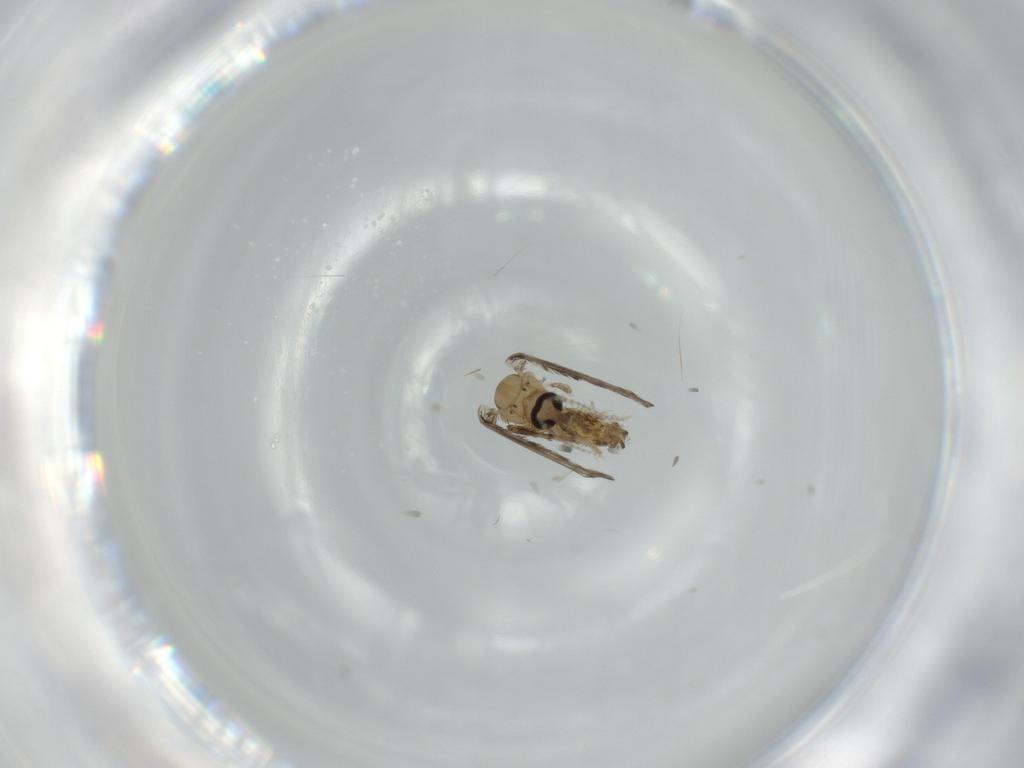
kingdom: Animalia
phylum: Arthropoda
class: Insecta
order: Diptera
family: Psychodidae
